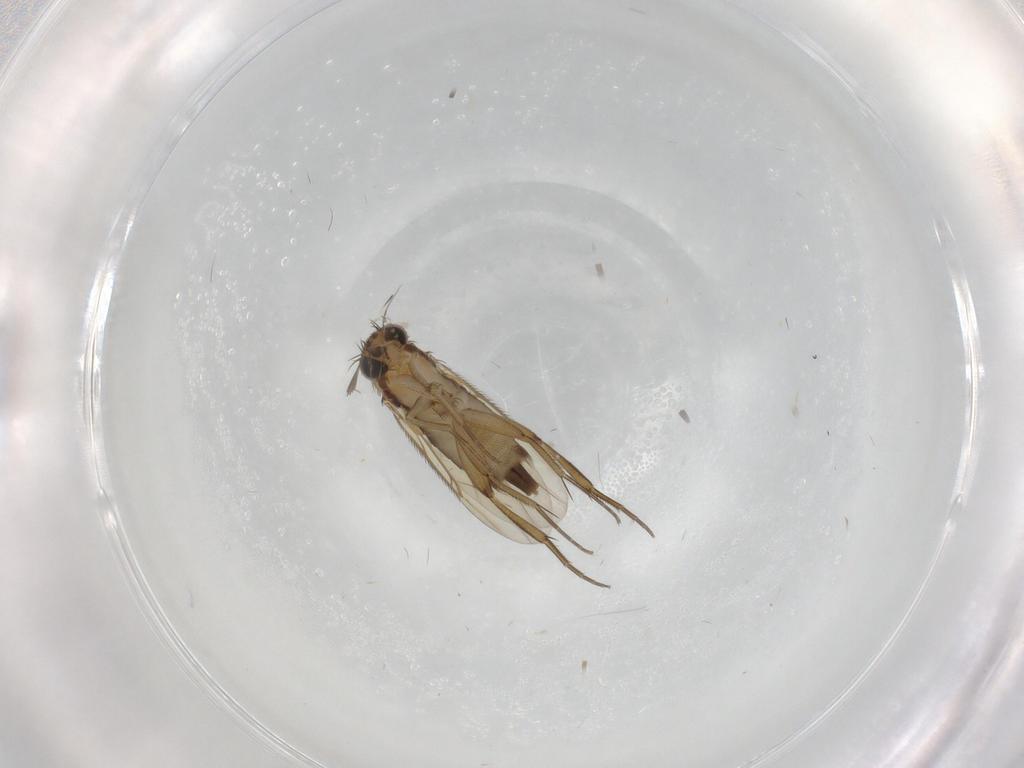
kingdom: Animalia
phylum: Arthropoda
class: Insecta
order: Diptera
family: Phoridae
